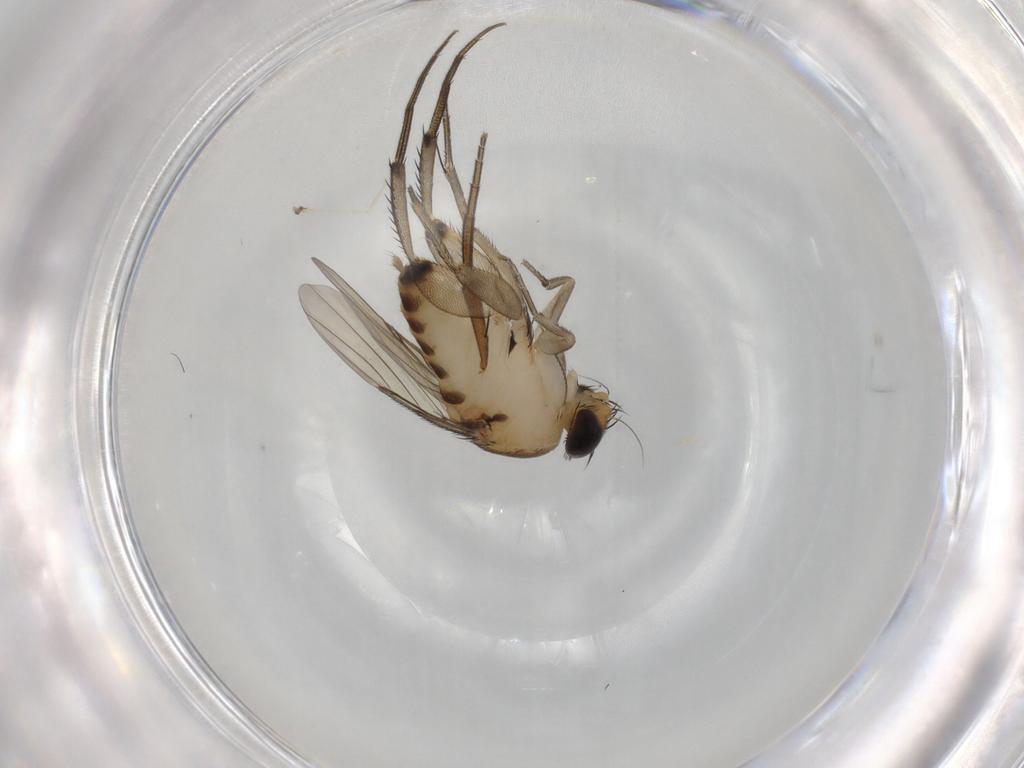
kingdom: Animalia
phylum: Arthropoda
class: Insecta
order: Diptera
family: Phoridae
